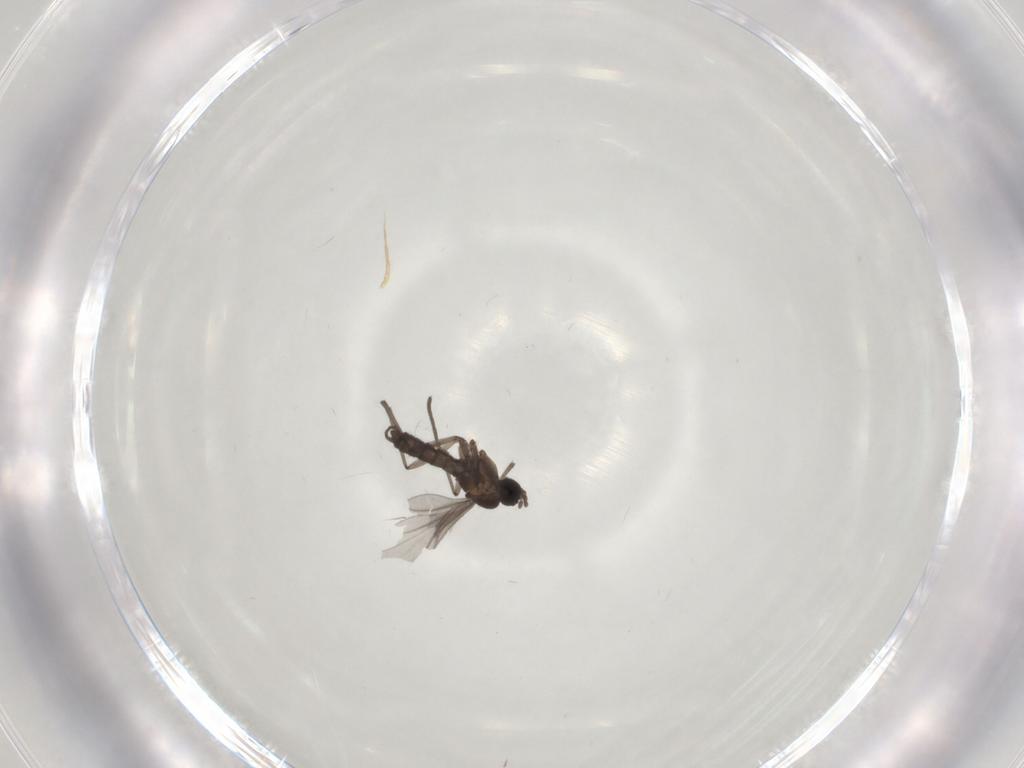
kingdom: Animalia
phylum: Arthropoda
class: Insecta
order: Diptera
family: Sciaridae
